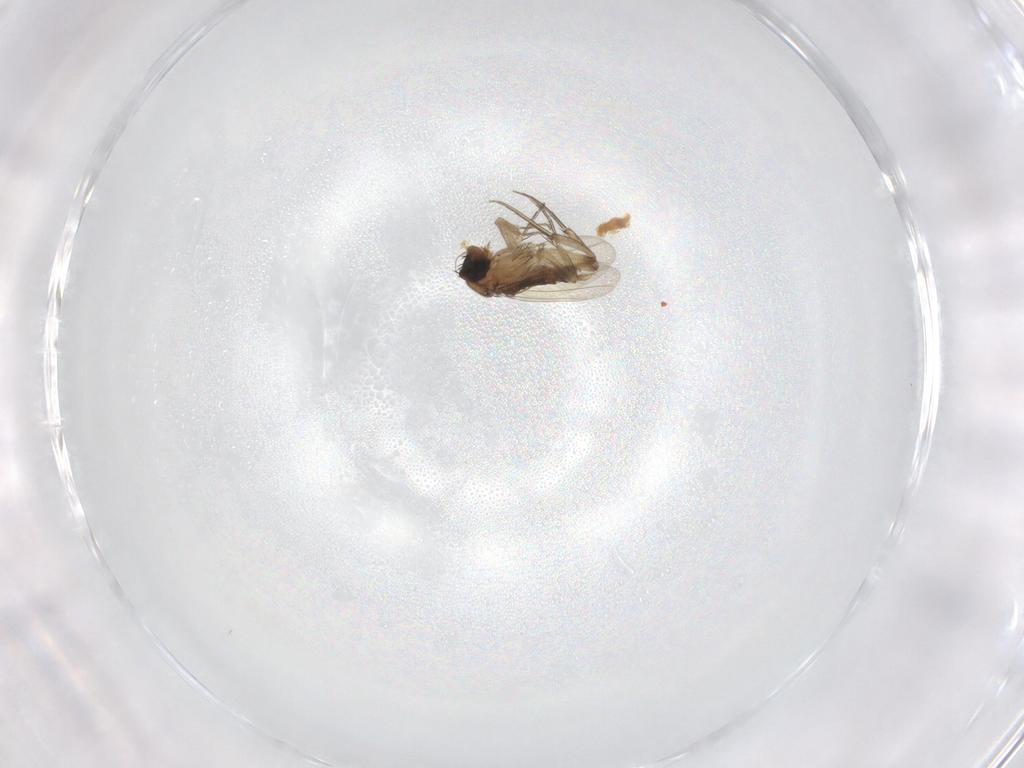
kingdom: Animalia
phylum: Arthropoda
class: Insecta
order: Diptera
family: Phoridae
